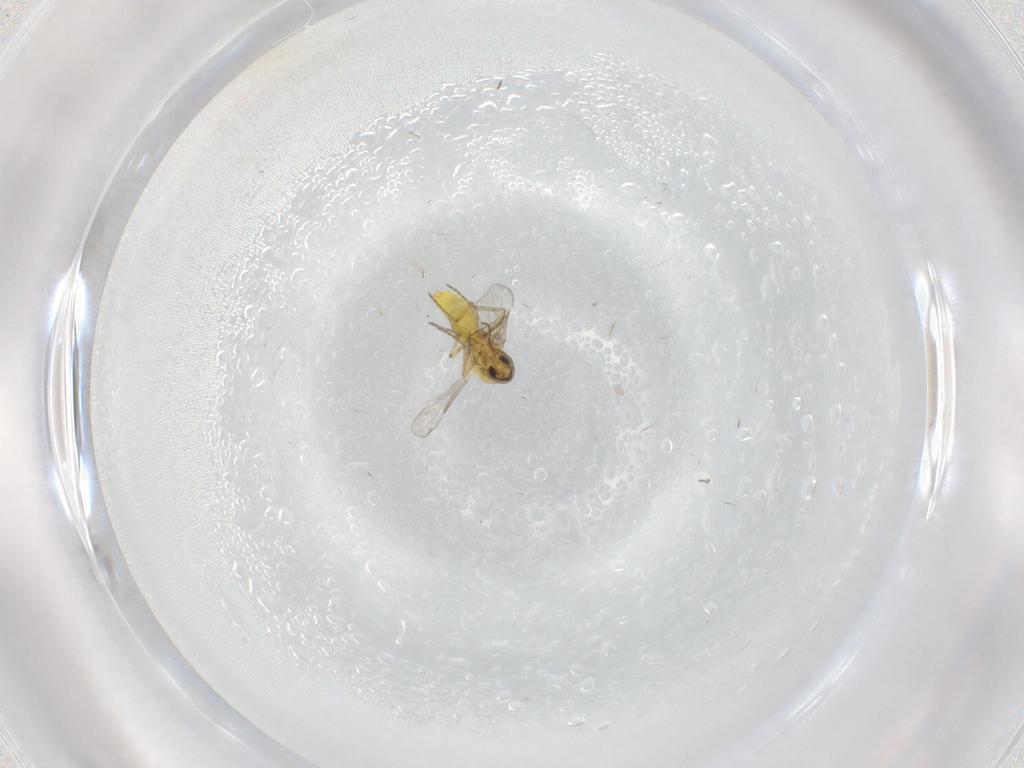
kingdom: Animalia
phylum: Arthropoda
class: Insecta
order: Diptera
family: Ceratopogonidae
